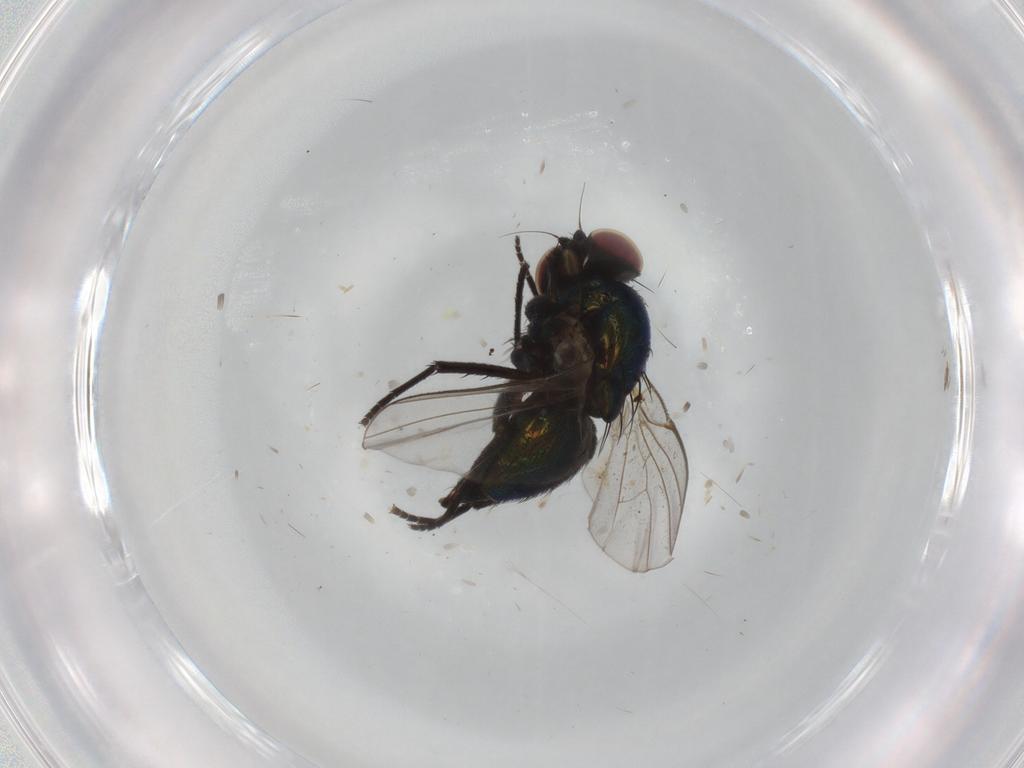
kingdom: Animalia
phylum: Arthropoda
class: Insecta
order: Diptera
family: Agromyzidae
